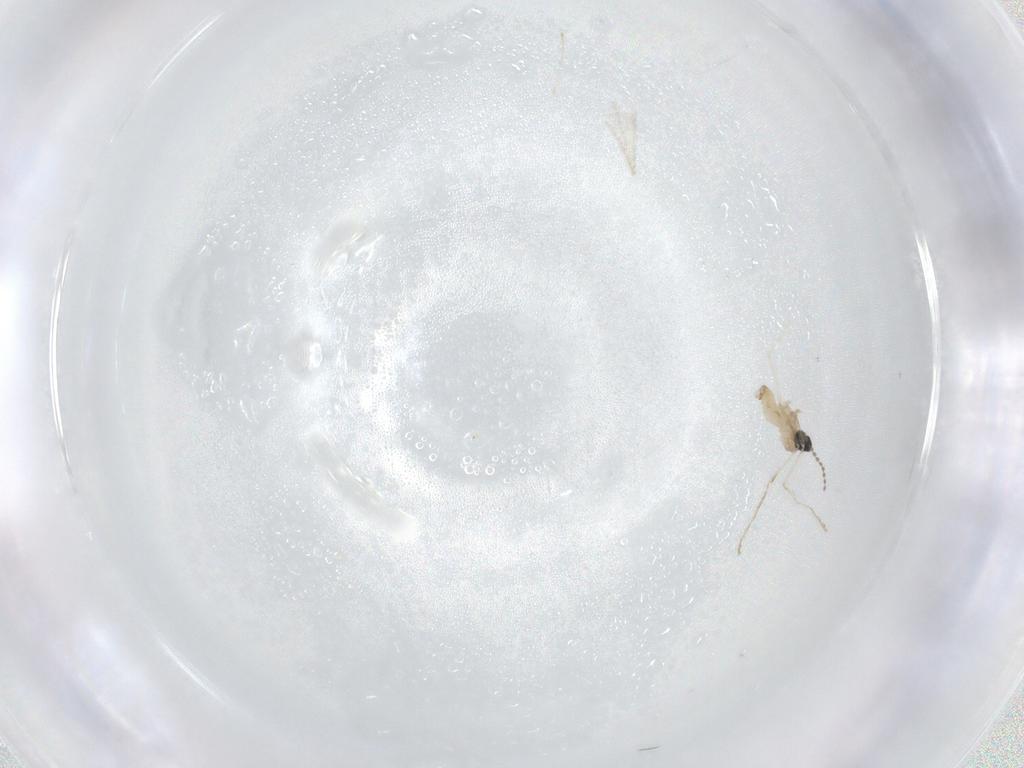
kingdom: Animalia
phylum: Arthropoda
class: Insecta
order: Diptera
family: Cecidomyiidae
